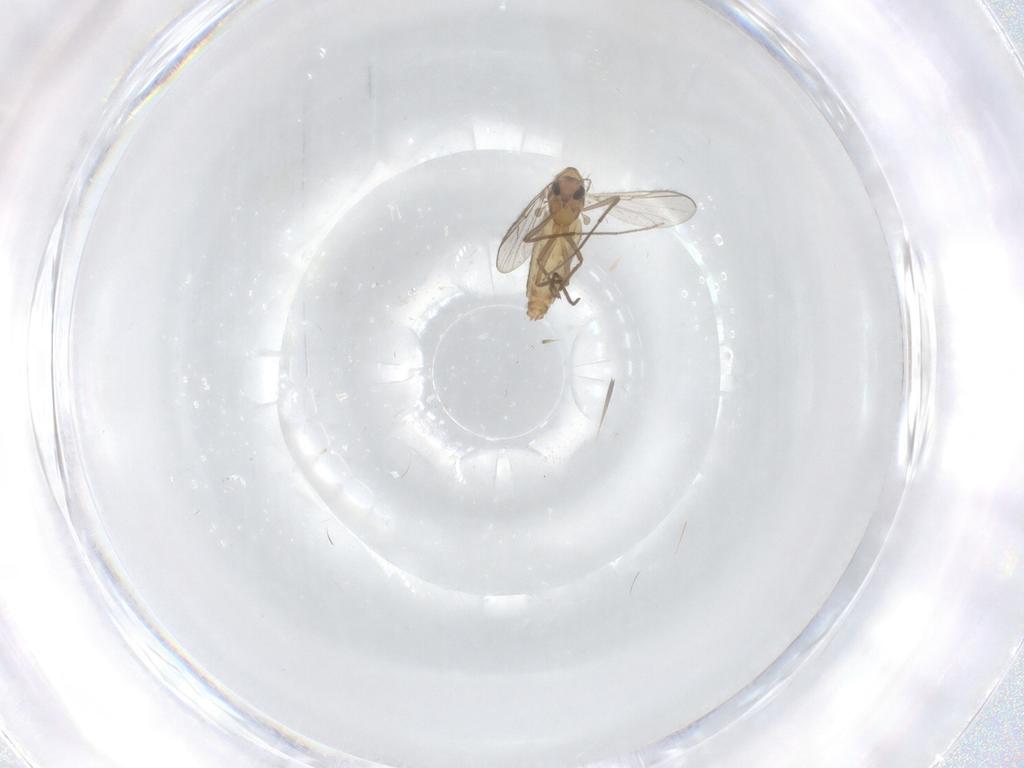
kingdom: Animalia
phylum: Arthropoda
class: Insecta
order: Diptera
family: Chironomidae
